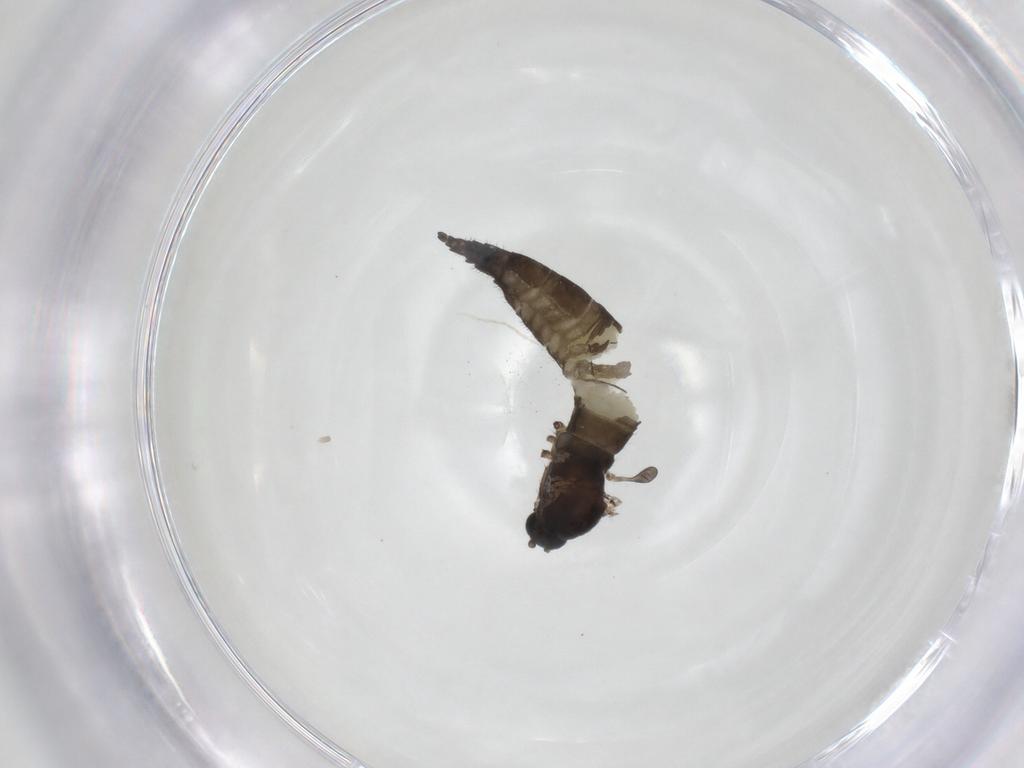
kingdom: Animalia
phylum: Arthropoda
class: Insecta
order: Diptera
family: Sciaridae
